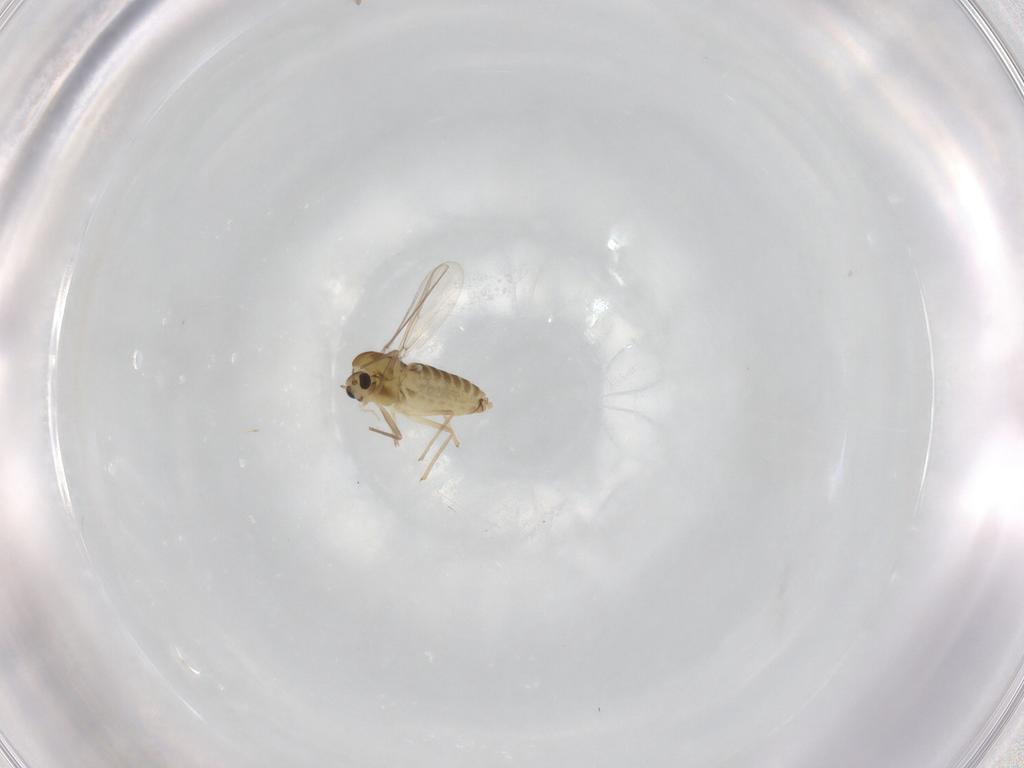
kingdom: Animalia
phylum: Arthropoda
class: Insecta
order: Diptera
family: Chironomidae
